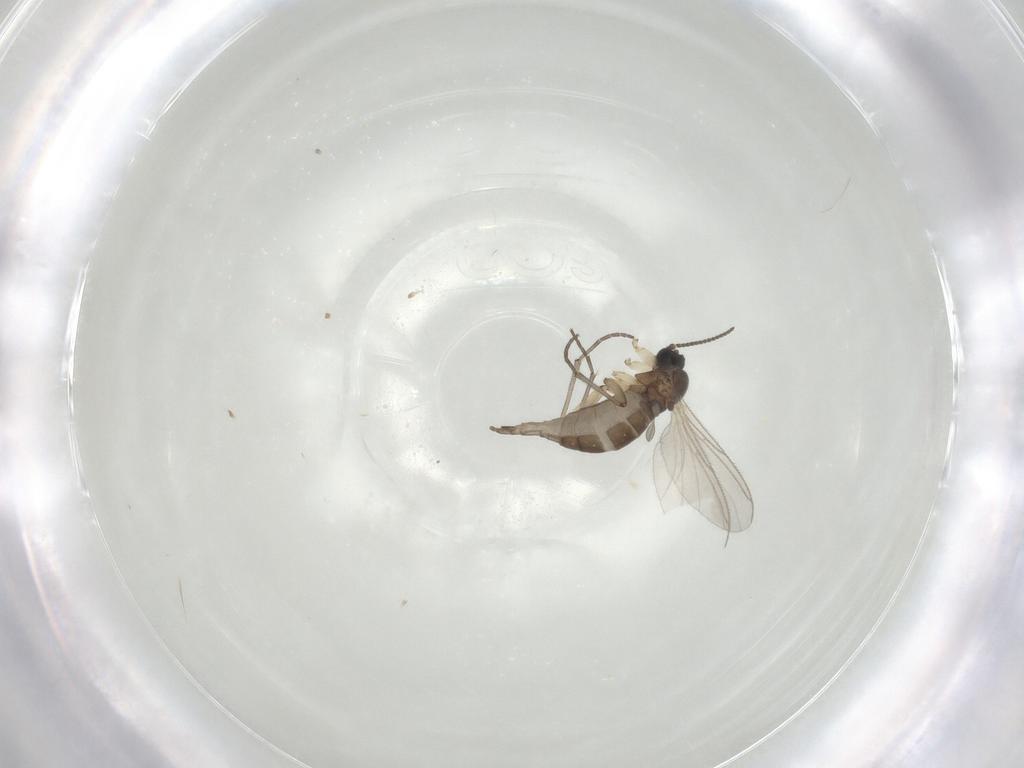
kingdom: Animalia
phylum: Arthropoda
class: Insecta
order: Diptera
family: Sciaridae
